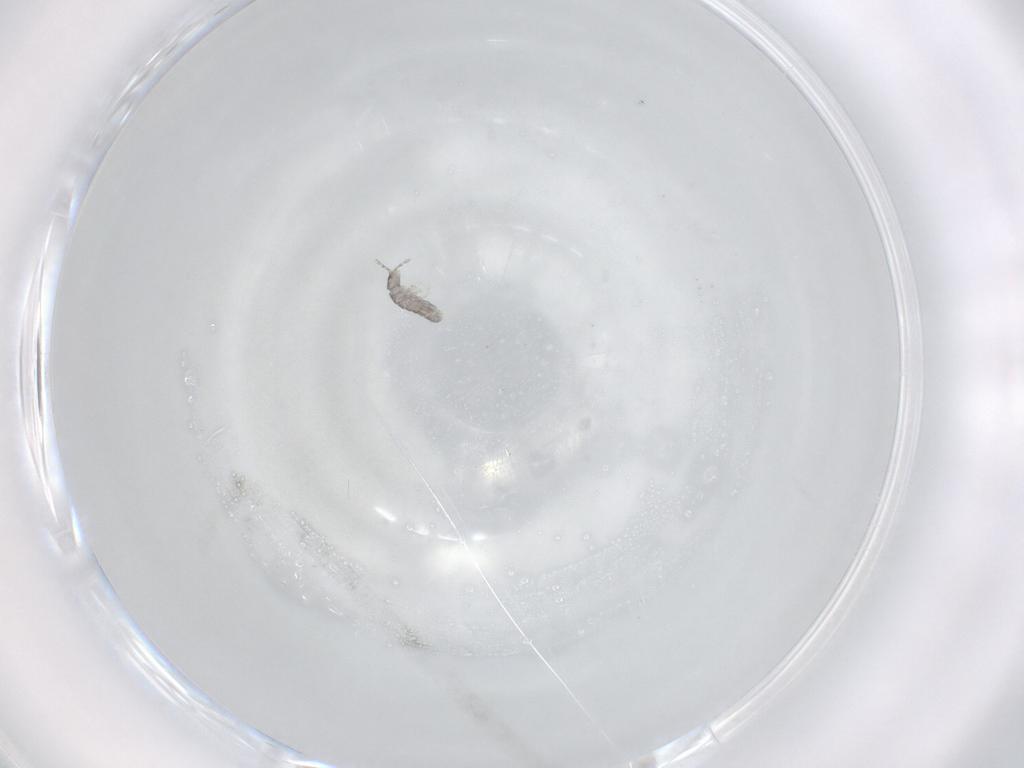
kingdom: Animalia
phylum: Arthropoda
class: Collembola
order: Entomobryomorpha
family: Isotomidae
